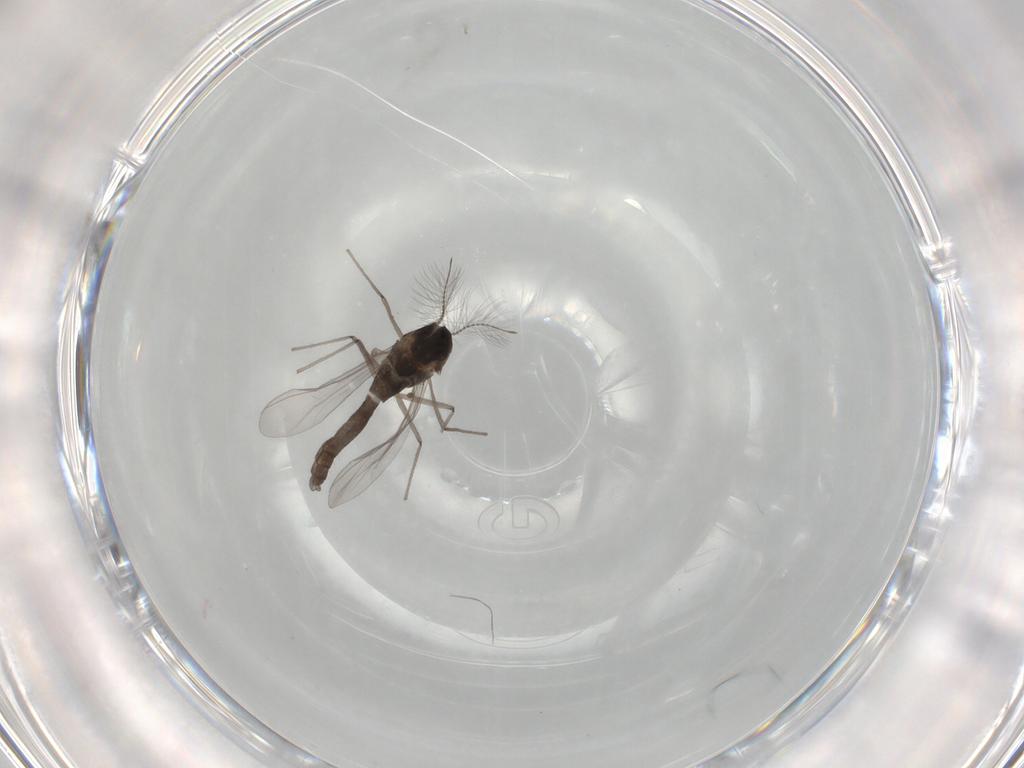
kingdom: Animalia
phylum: Arthropoda
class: Insecta
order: Diptera
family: Chironomidae
